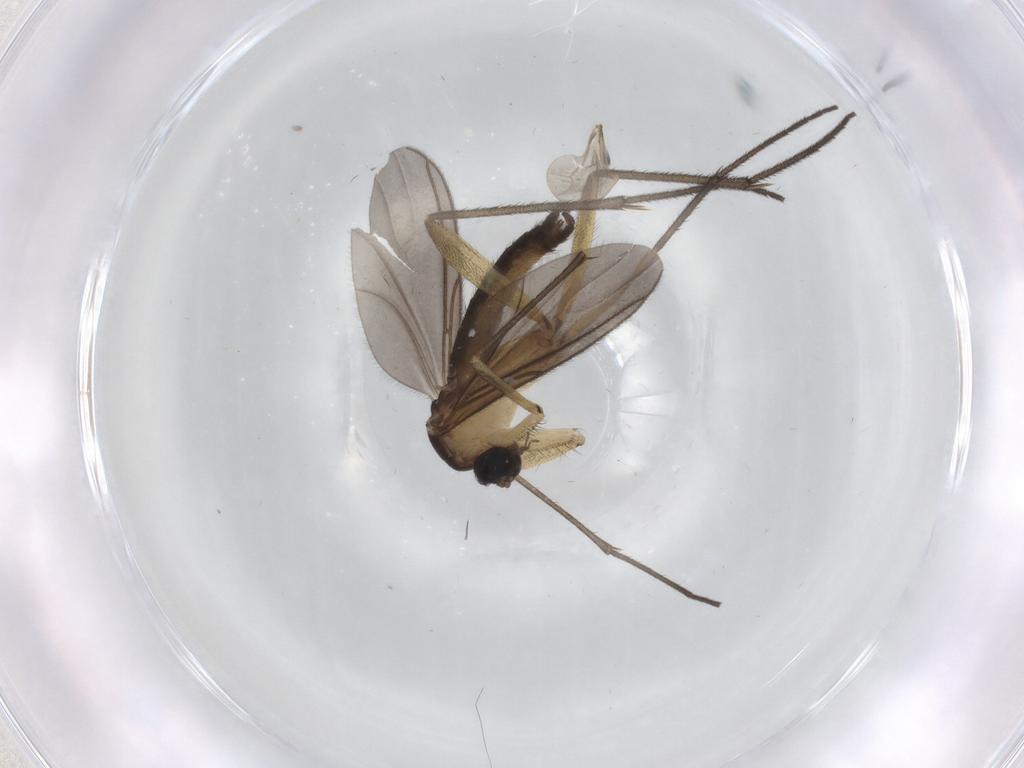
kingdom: Animalia
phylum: Arthropoda
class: Insecta
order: Diptera
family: Sciaridae
